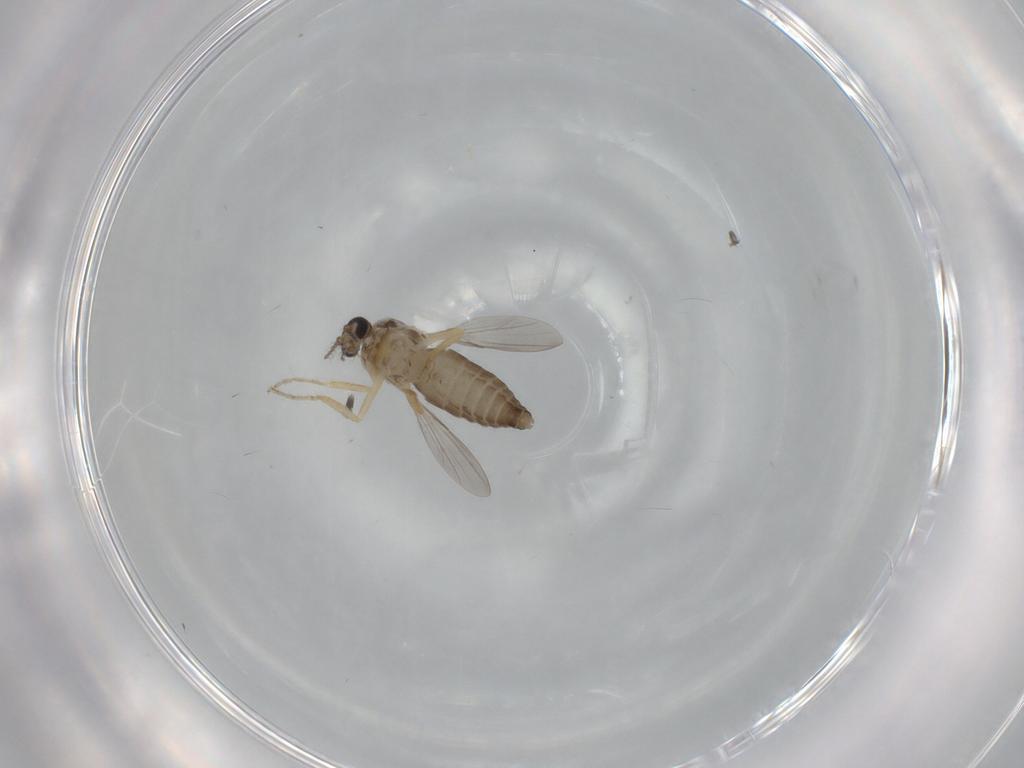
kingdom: Animalia
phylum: Arthropoda
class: Insecta
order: Diptera
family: Ceratopogonidae
